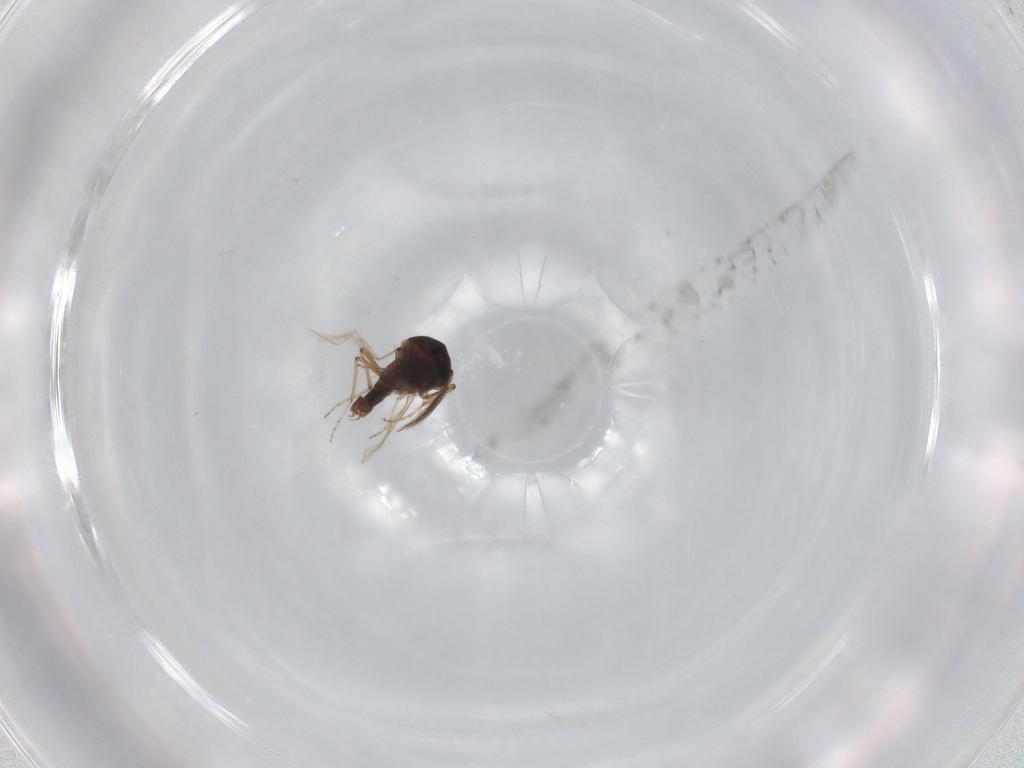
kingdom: Animalia
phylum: Arthropoda
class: Insecta
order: Diptera
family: Ceratopogonidae
